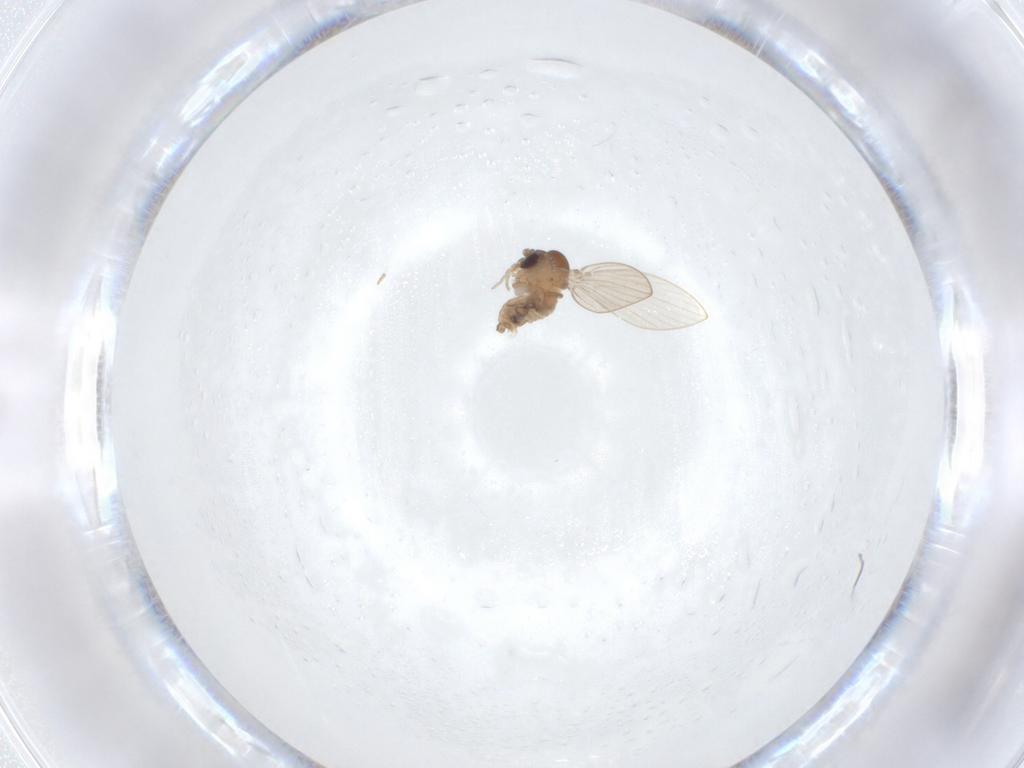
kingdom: Animalia
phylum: Arthropoda
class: Insecta
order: Diptera
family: Psychodidae
